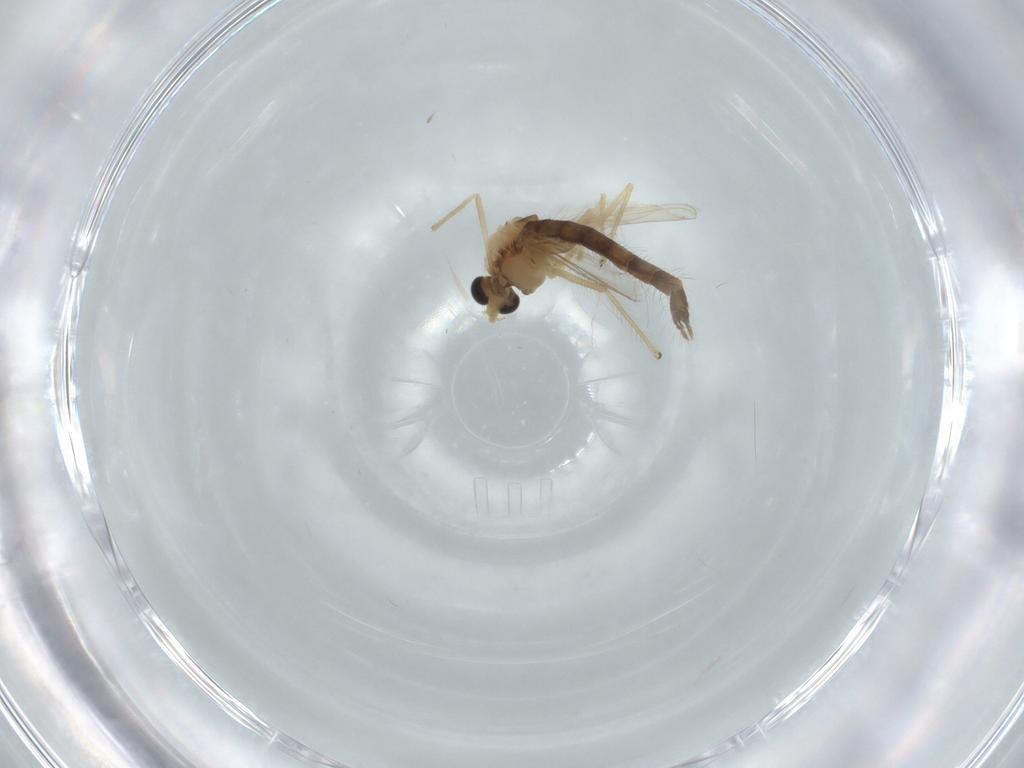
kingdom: Animalia
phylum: Arthropoda
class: Insecta
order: Diptera
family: Chironomidae
